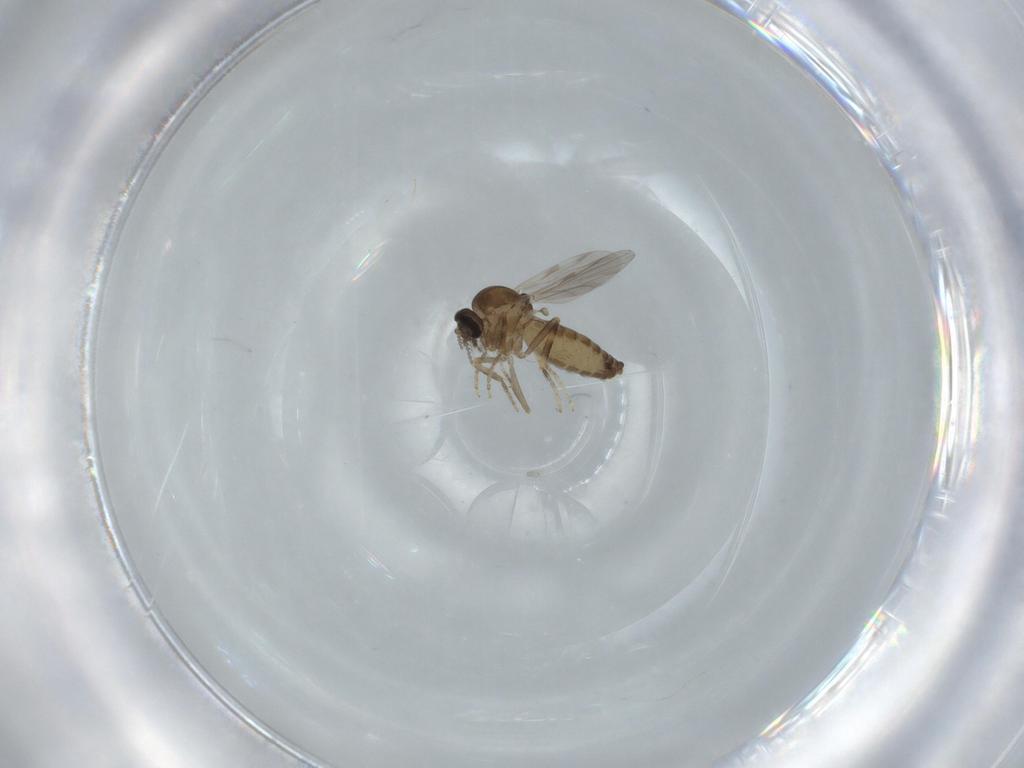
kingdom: Animalia
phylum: Arthropoda
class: Insecta
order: Diptera
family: Ceratopogonidae
